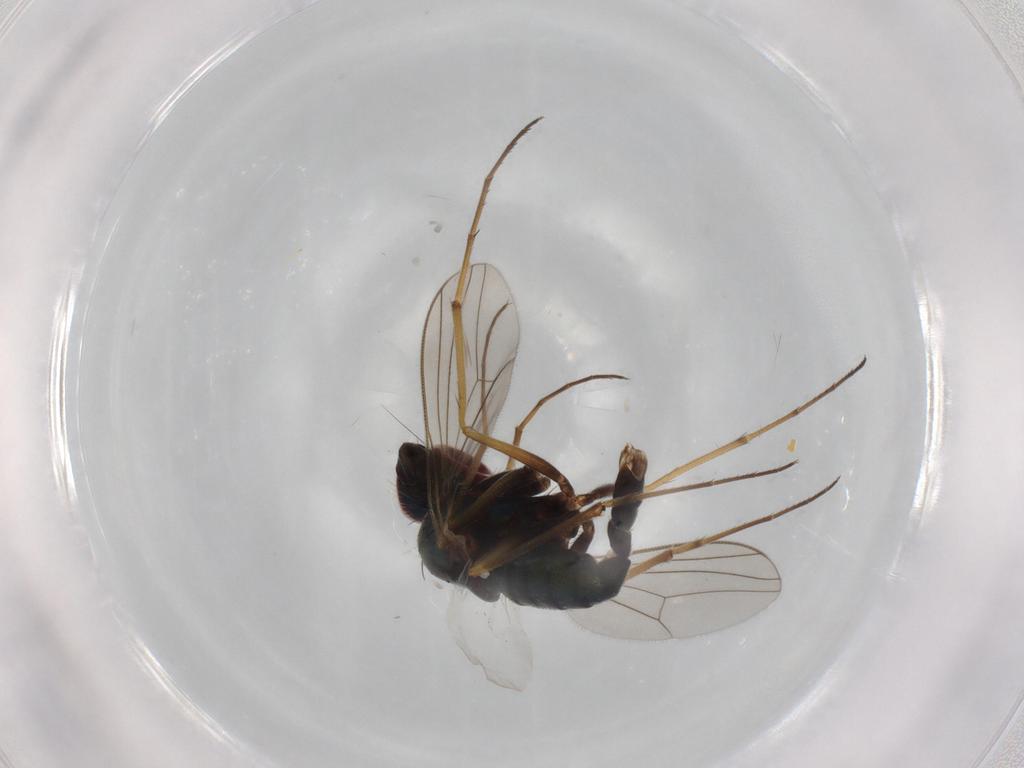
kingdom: Animalia
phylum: Arthropoda
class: Insecta
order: Diptera
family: Dolichopodidae
